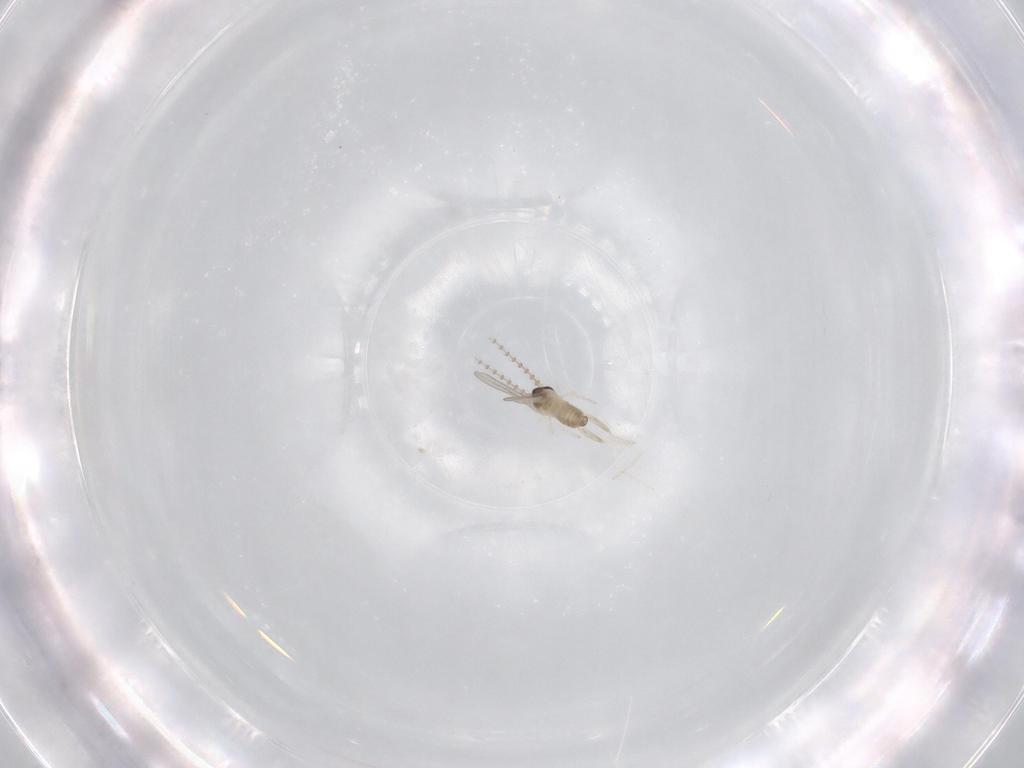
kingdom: Animalia
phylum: Arthropoda
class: Insecta
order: Diptera
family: Cecidomyiidae
